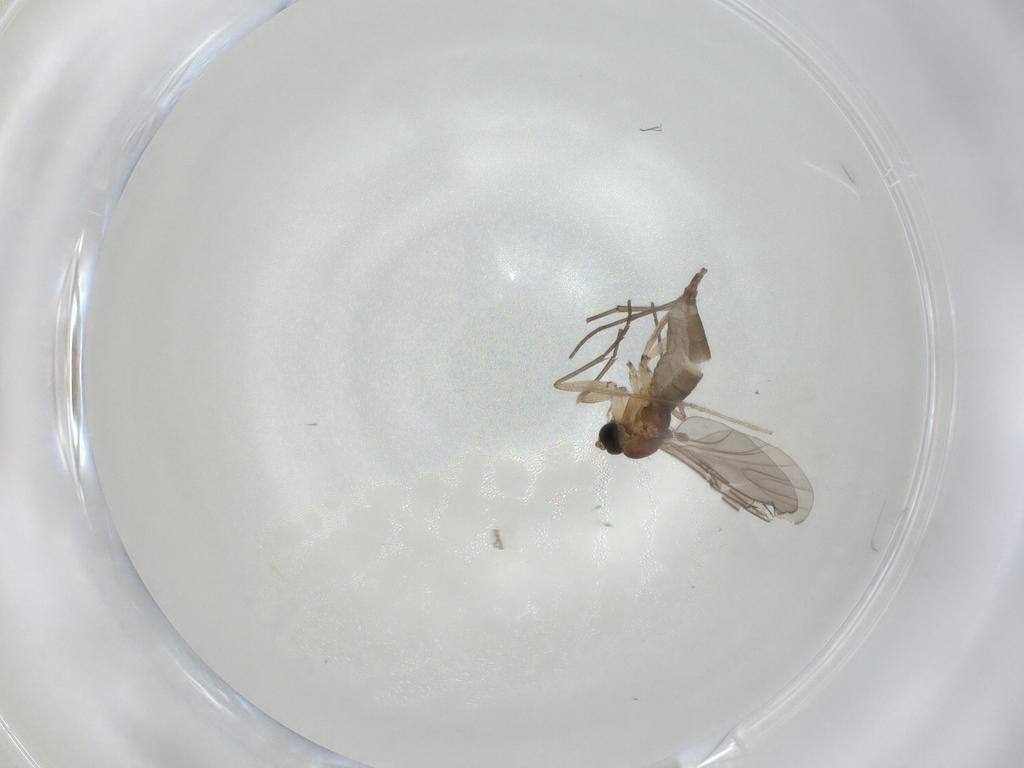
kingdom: Animalia
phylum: Arthropoda
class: Insecta
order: Diptera
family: Chironomidae
